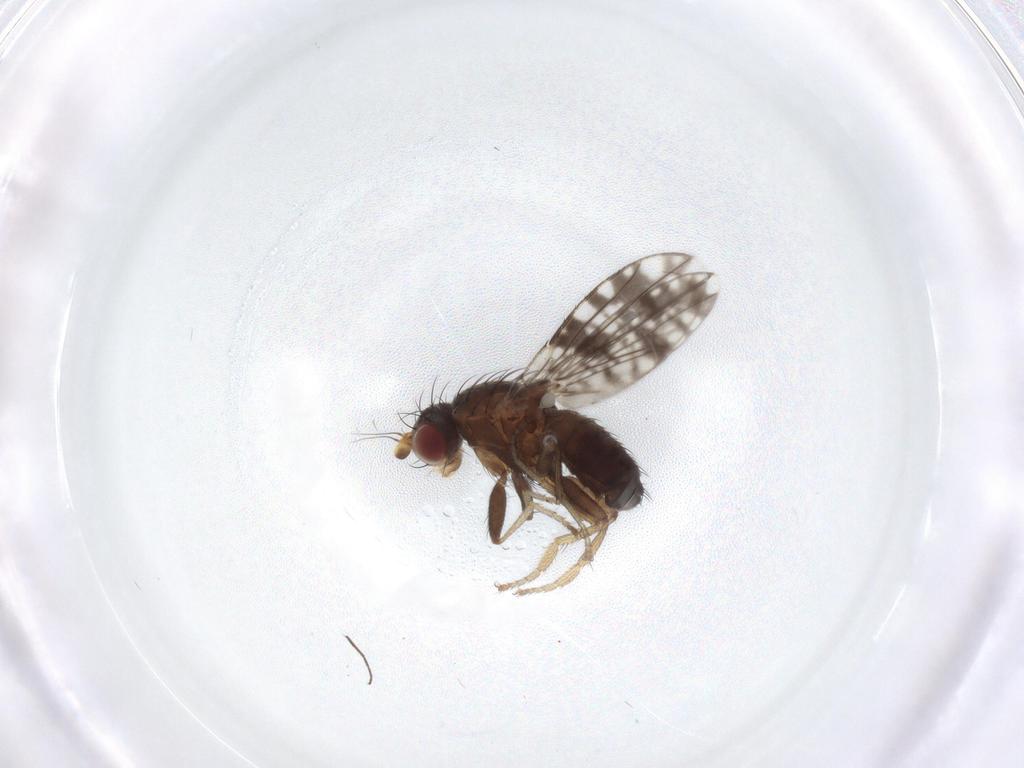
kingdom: Animalia
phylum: Arthropoda
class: Insecta
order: Diptera
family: Tephritidae
